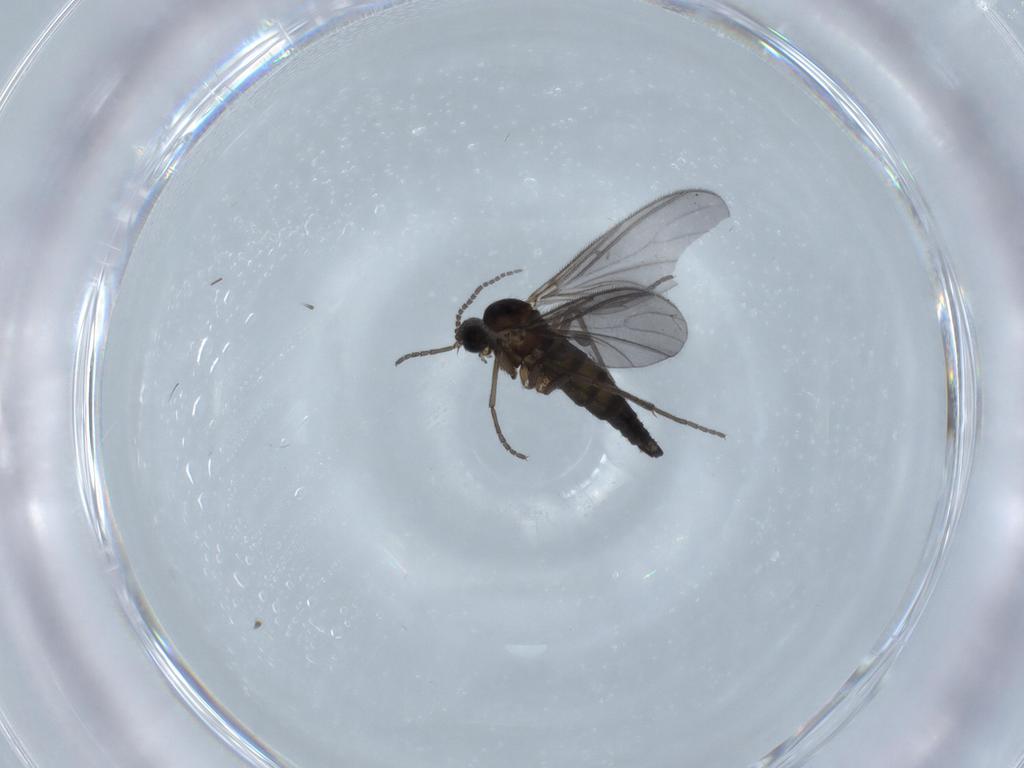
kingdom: Animalia
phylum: Arthropoda
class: Insecta
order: Diptera
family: Sciaridae
